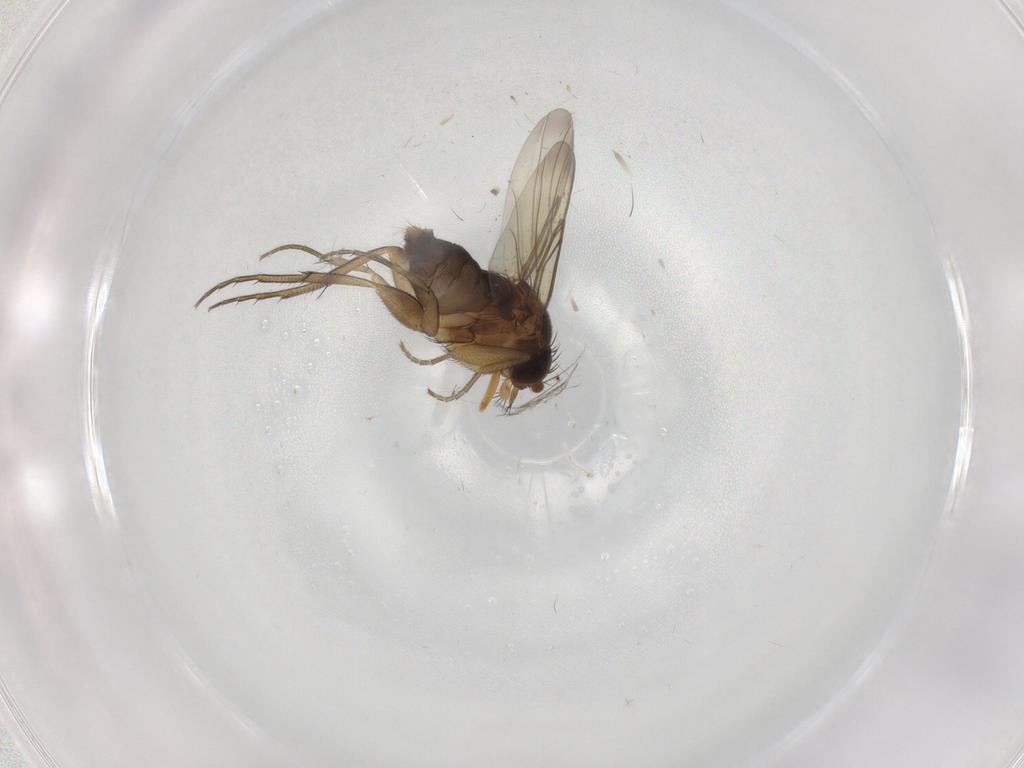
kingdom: Animalia
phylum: Arthropoda
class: Insecta
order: Diptera
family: Phoridae
